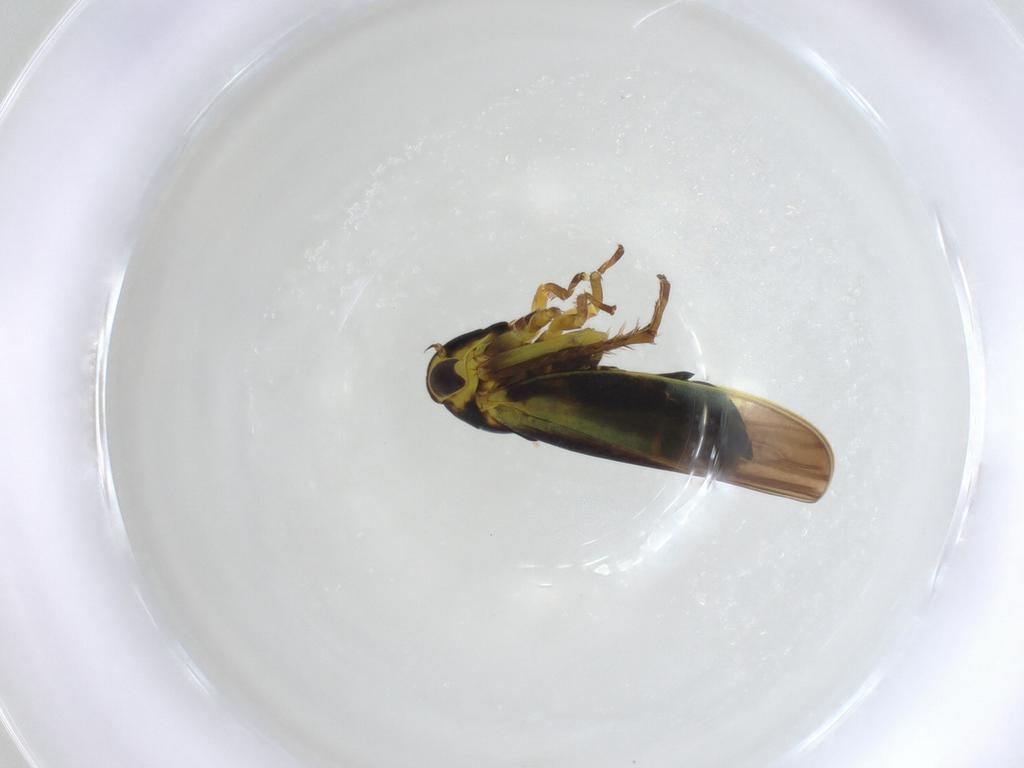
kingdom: Animalia
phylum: Arthropoda
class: Insecta
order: Hemiptera
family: Cicadellidae
